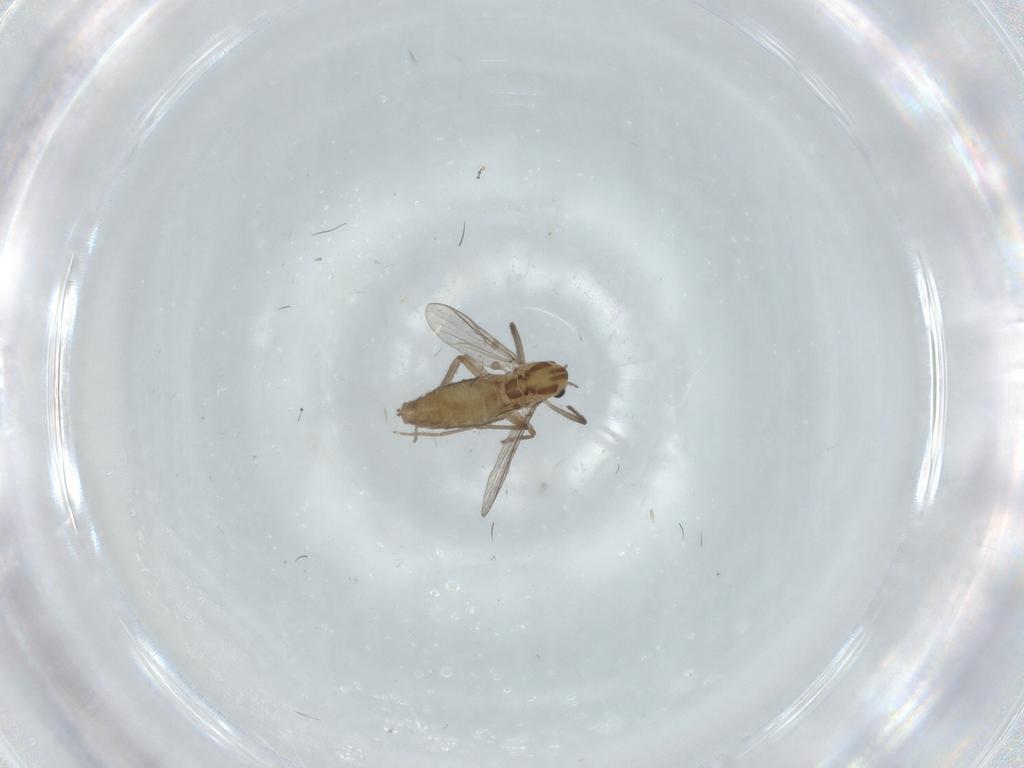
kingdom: Animalia
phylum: Arthropoda
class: Insecta
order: Diptera
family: Chironomidae
